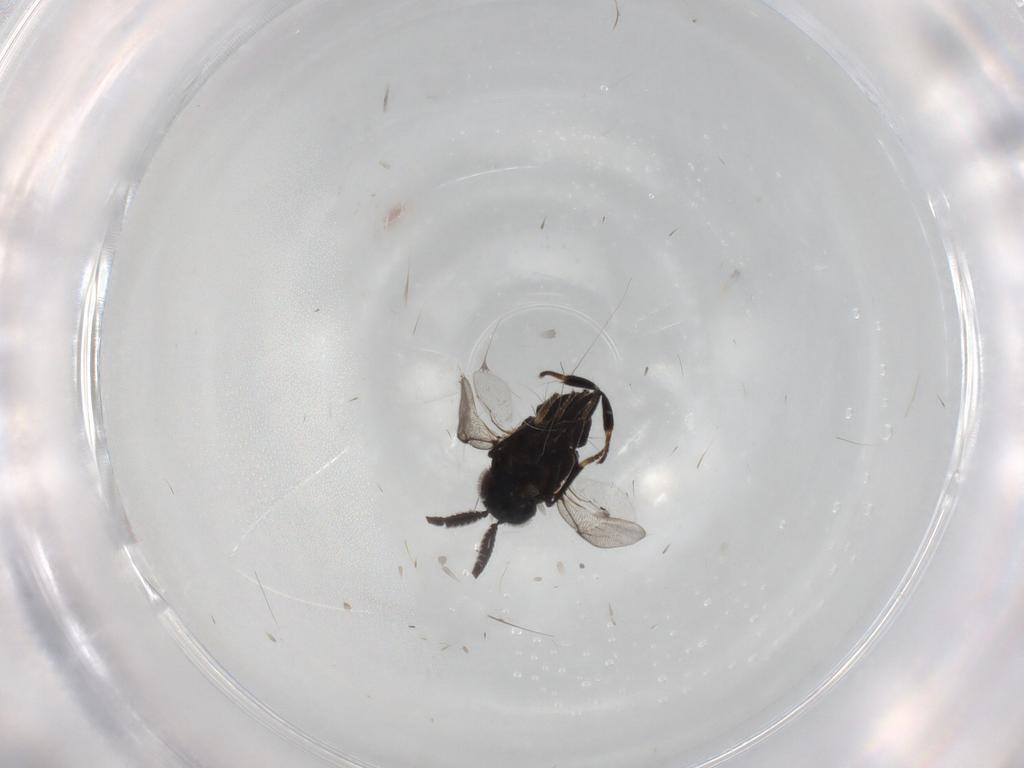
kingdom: Animalia
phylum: Arthropoda
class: Insecta
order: Hymenoptera
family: Encyrtidae
